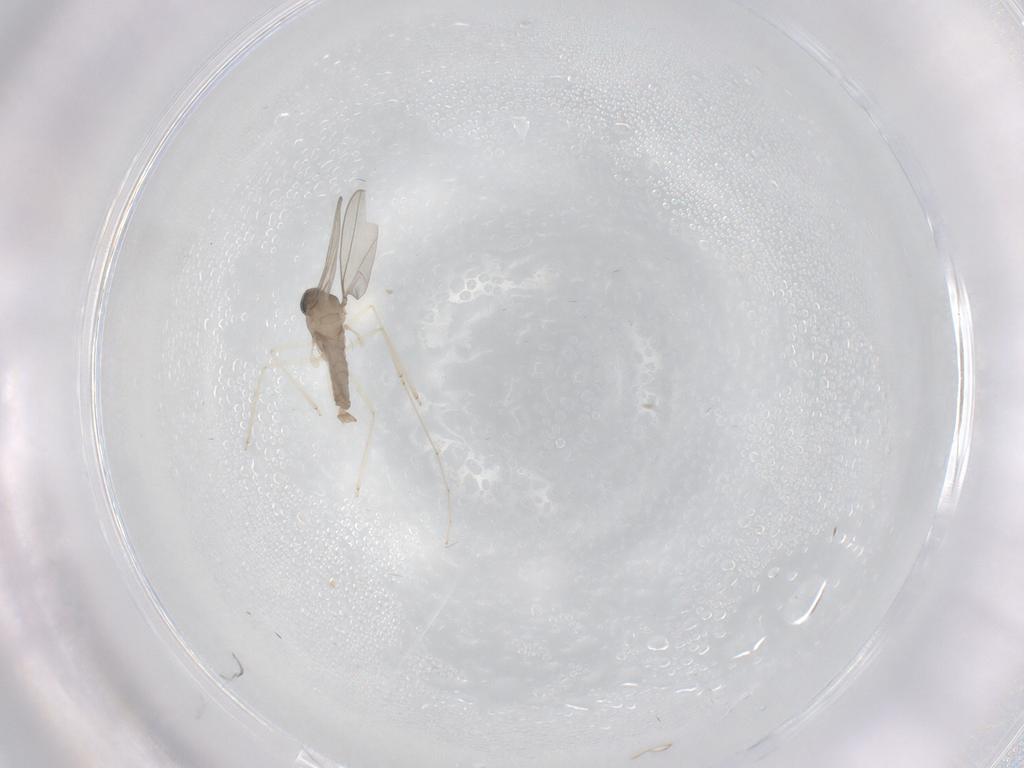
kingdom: Animalia
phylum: Arthropoda
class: Insecta
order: Diptera
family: Cecidomyiidae
